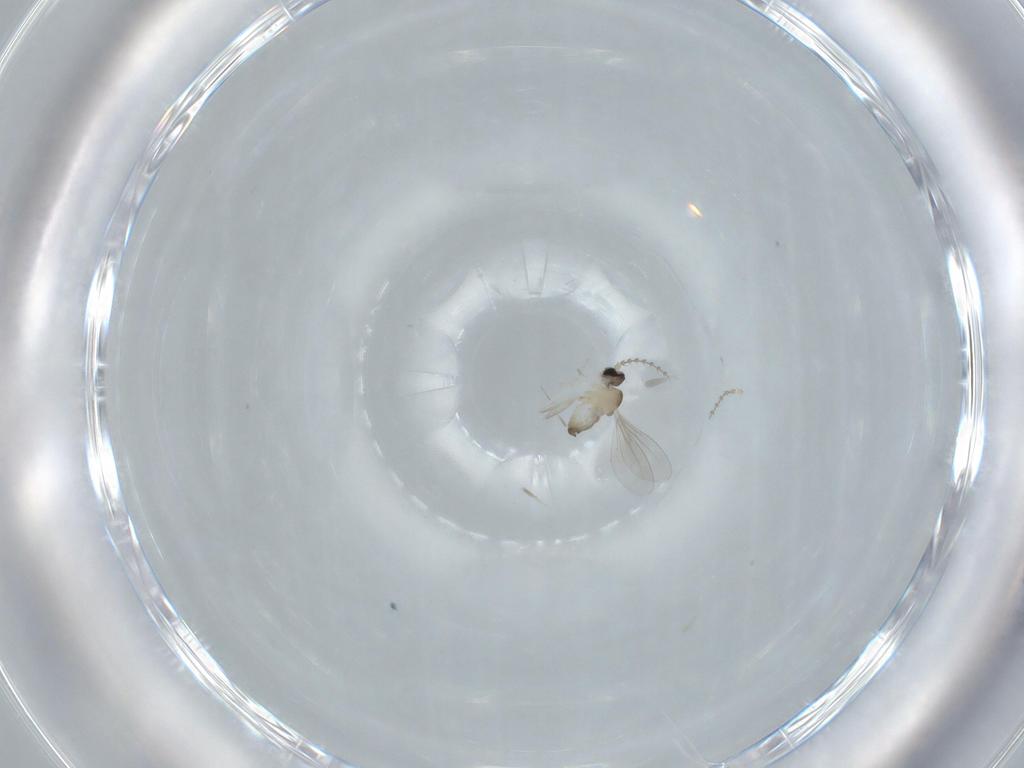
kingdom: Animalia
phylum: Arthropoda
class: Insecta
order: Diptera
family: Cecidomyiidae
